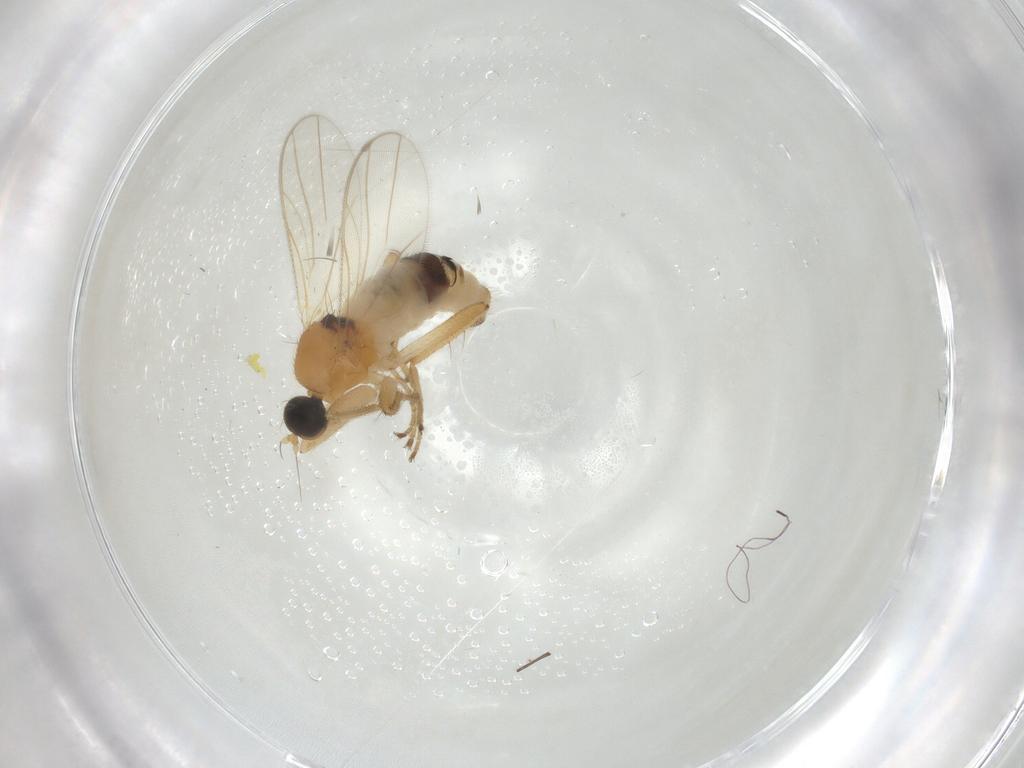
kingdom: Animalia
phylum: Arthropoda
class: Insecta
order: Diptera
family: Phoridae
